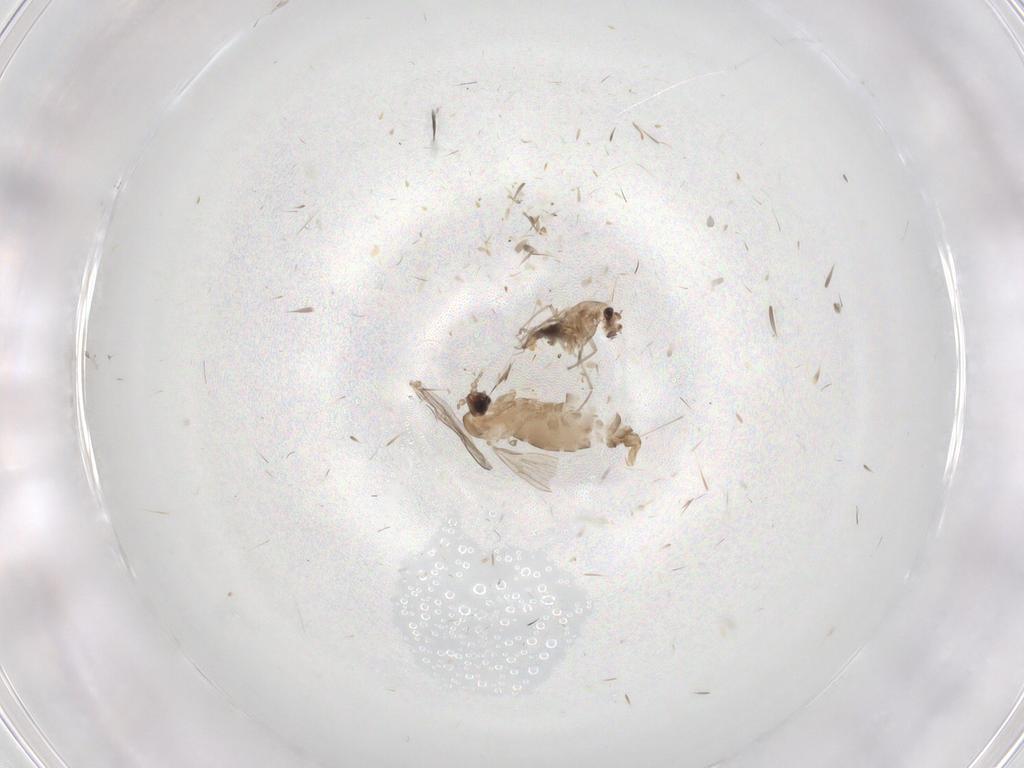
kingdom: Animalia
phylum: Arthropoda
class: Insecta
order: Diptera
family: Psychodidae
